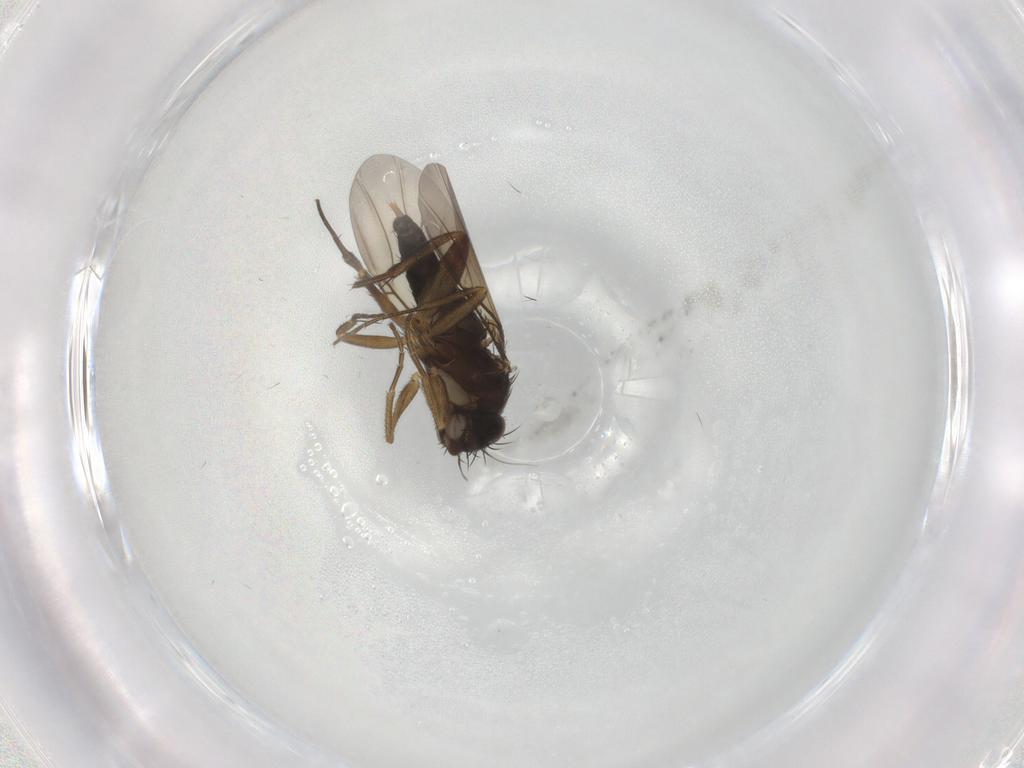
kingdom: Animalia
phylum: Arthropoda
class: Insecta
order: Diptera
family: Phoridae
